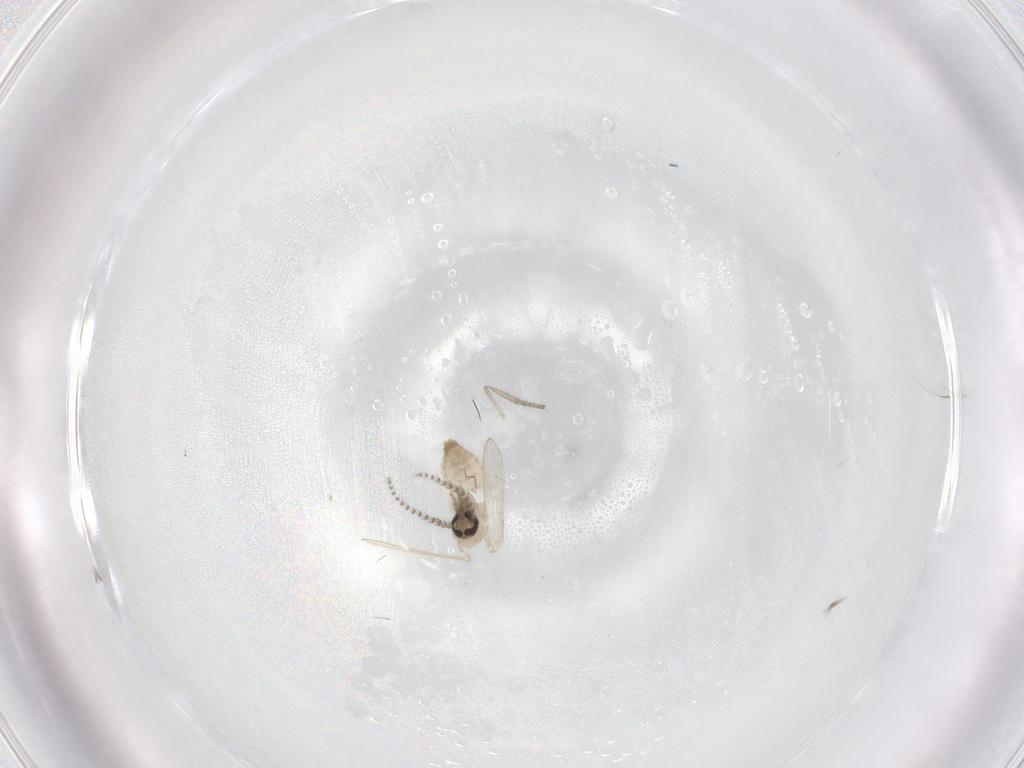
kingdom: Animalia
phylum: Arthropoda
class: Insecta
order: Diptera
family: Psychodidae
